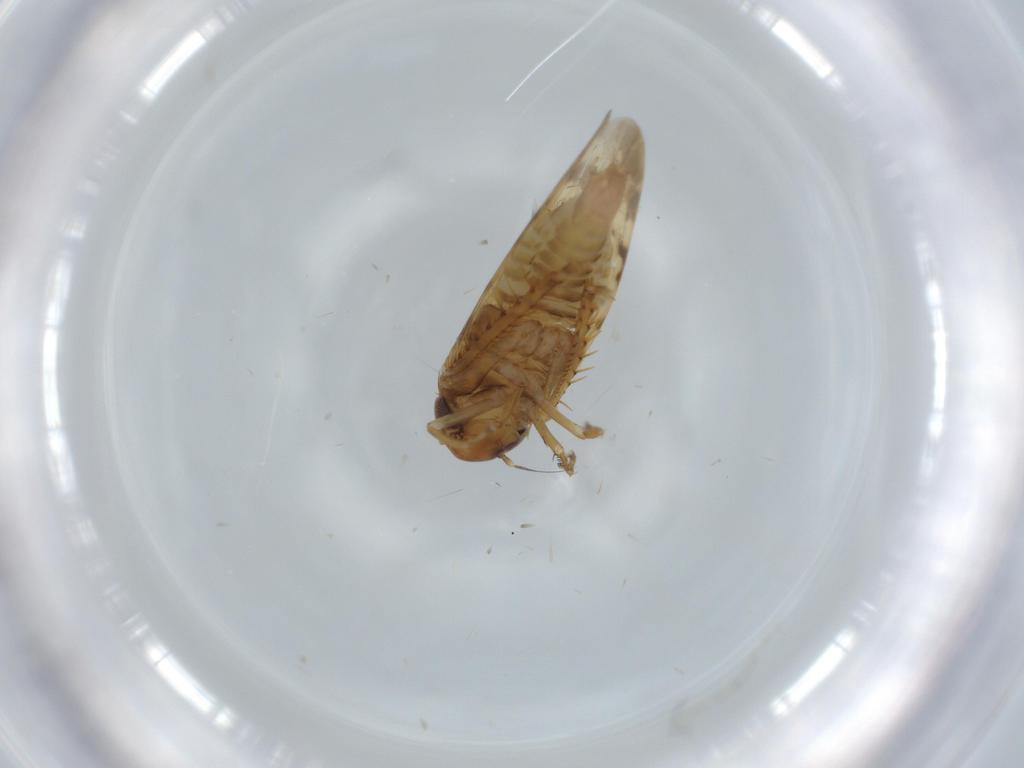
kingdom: Animalia
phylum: Arthropoda
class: Insecta
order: Hemiptera
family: Cicadellidae
